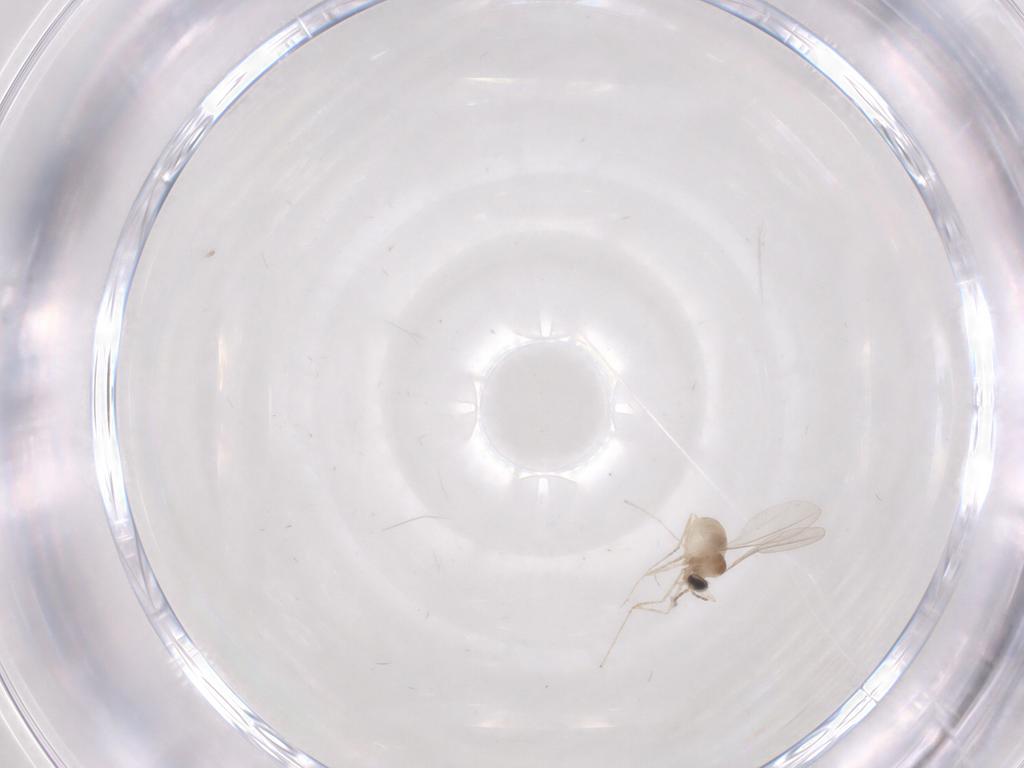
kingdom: Animalia
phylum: Arthropoda
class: Insecta
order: Diptera
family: Cecidomyiidae
